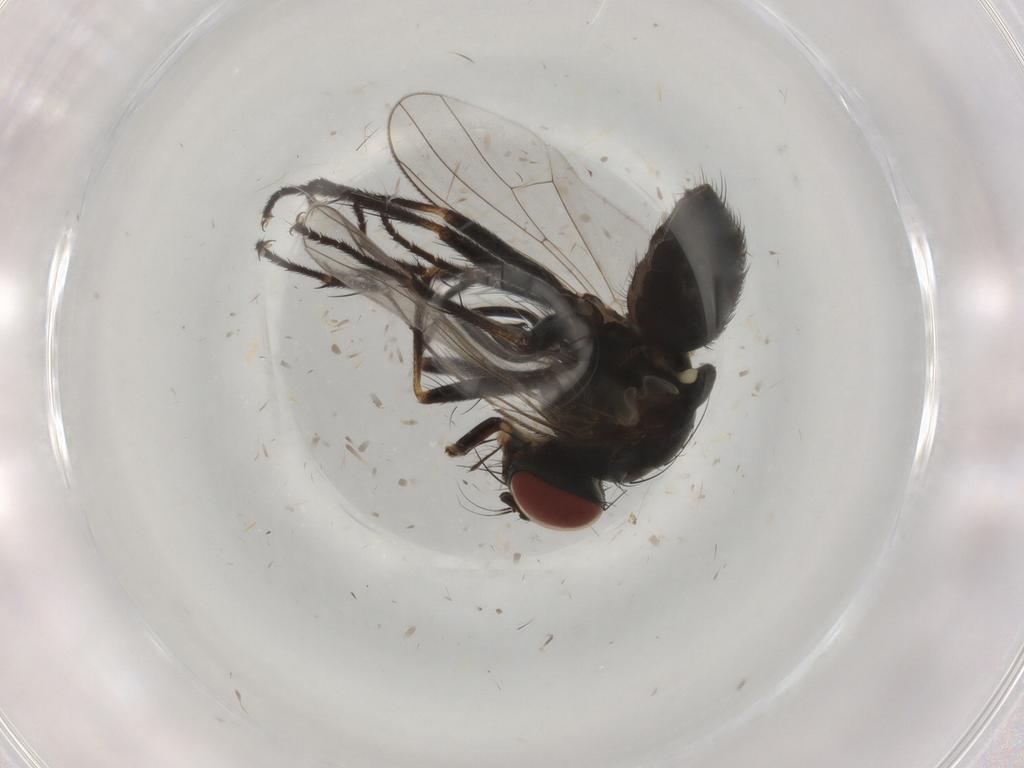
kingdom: Animalia
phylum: Arthropoda
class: Insecta
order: Diptera
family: Muscidae
